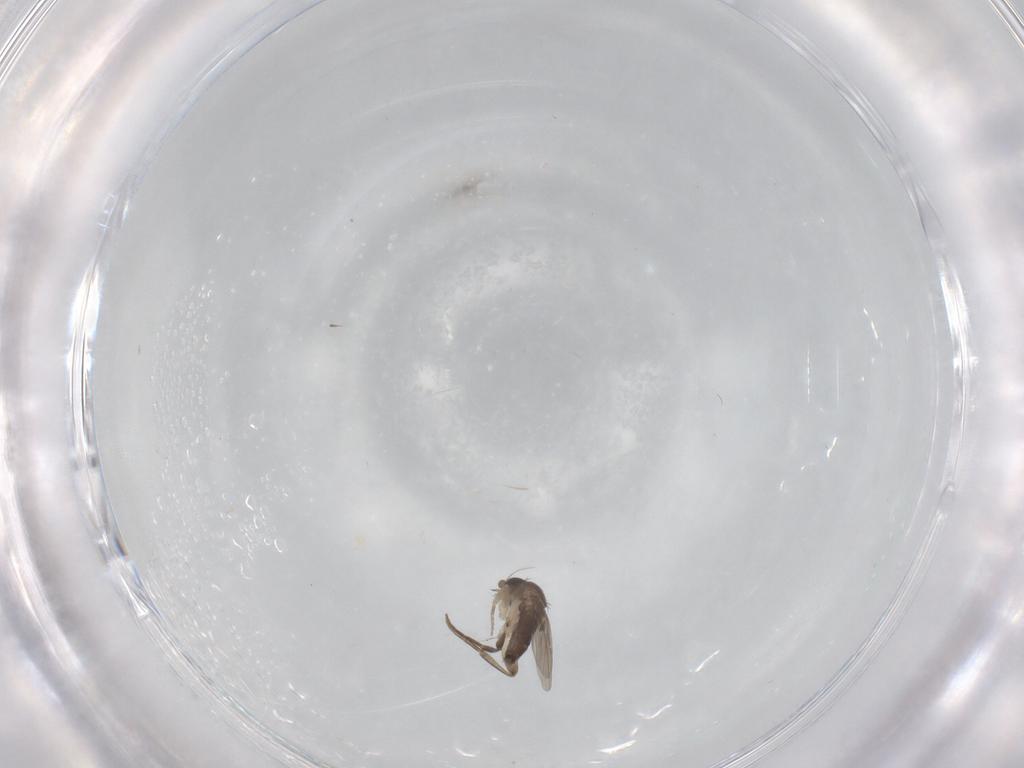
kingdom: Animalia
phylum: Arthropoda
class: Insecta
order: Diptera
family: Phoridae
